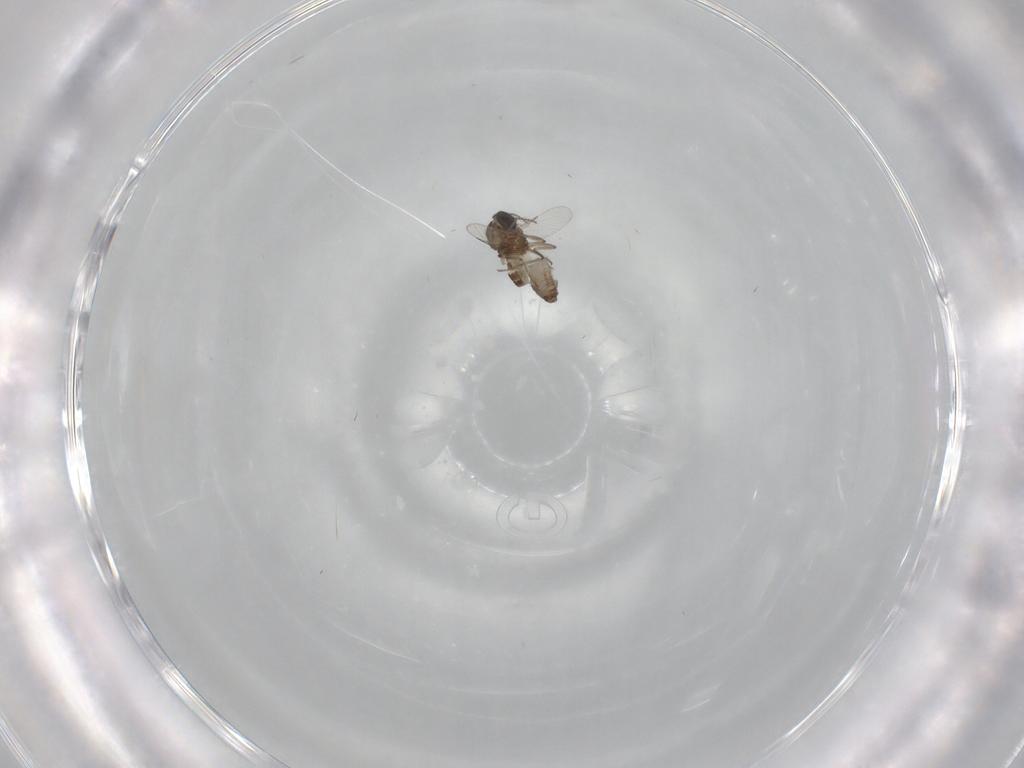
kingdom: Animalia
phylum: Arthropoda
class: Insecta
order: Diptera
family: Ceratopogonidae
